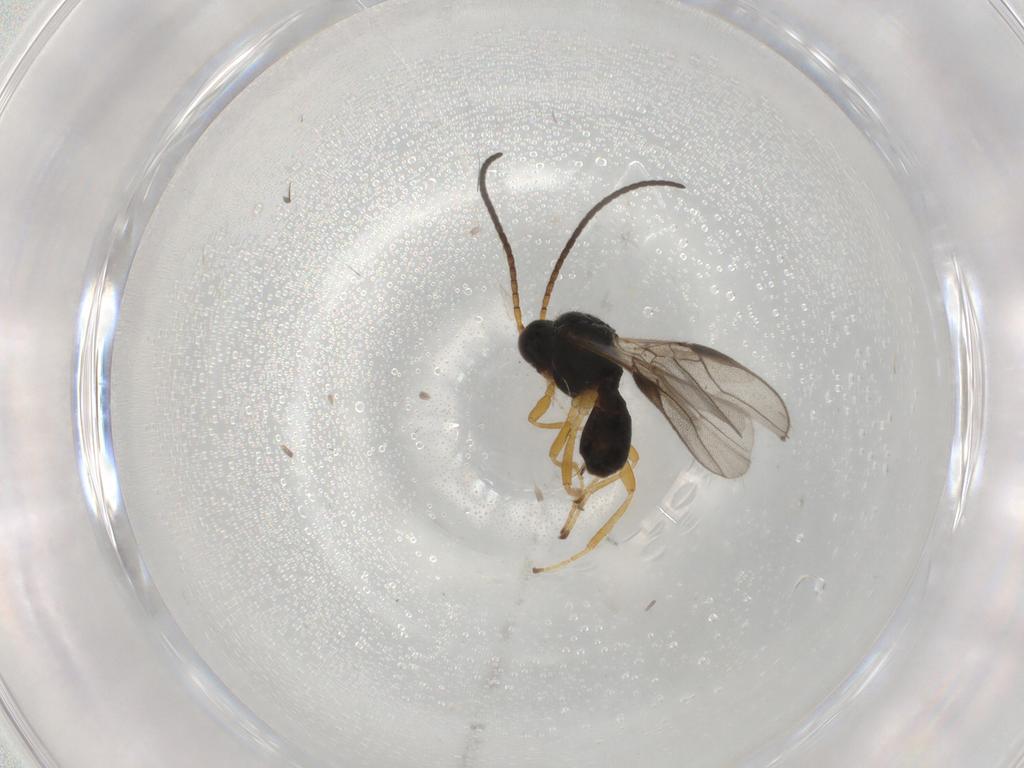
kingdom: Animalia
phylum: Arthropoda
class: Insecta
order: Hymenoptera
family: Braconidae
